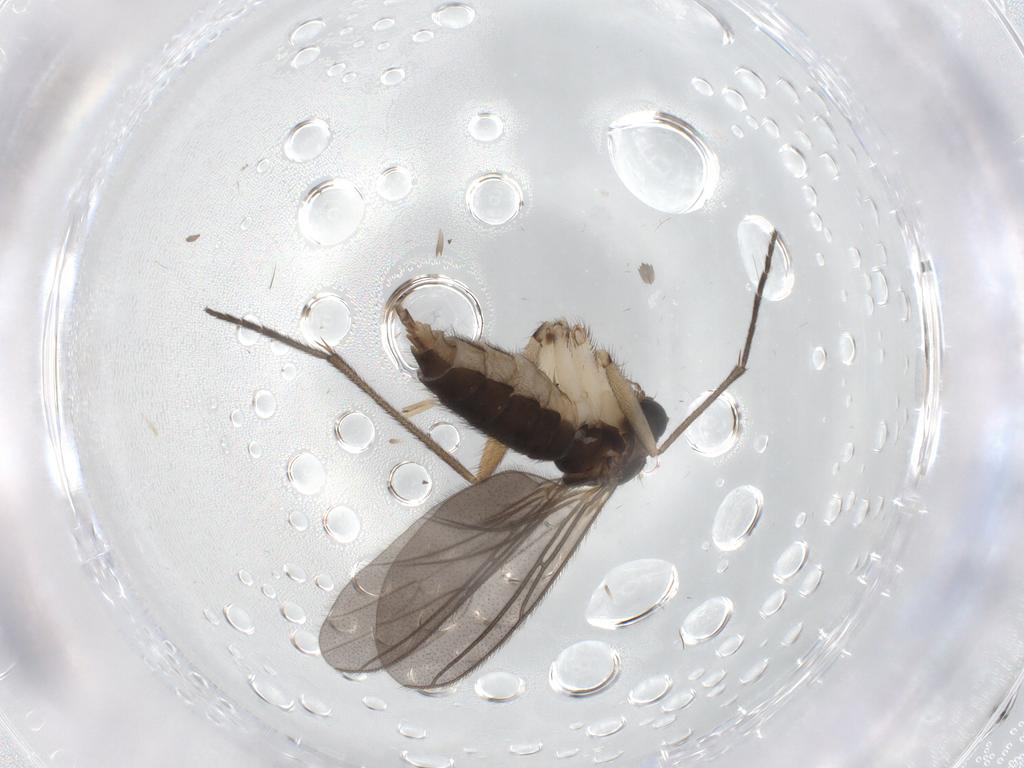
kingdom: Animalia
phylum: Arthropoda
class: Insecta
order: Diptera
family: Sciaridae
